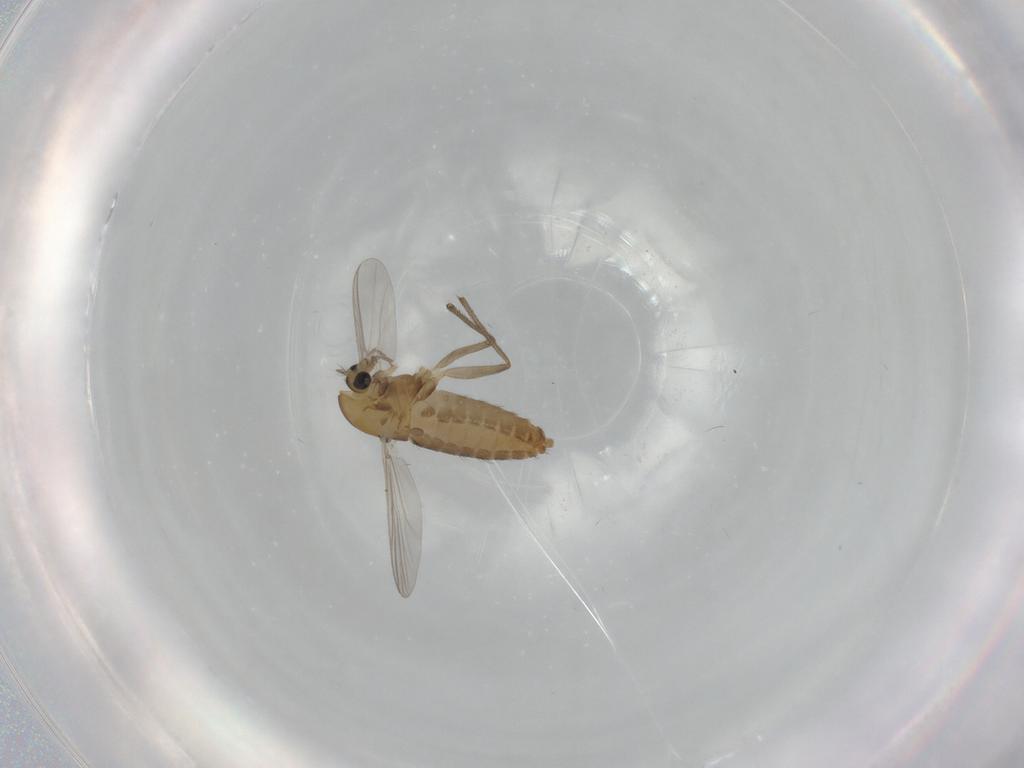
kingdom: Animalia
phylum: Arthropoda
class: Insecta
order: Diptera
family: Chironomidae
